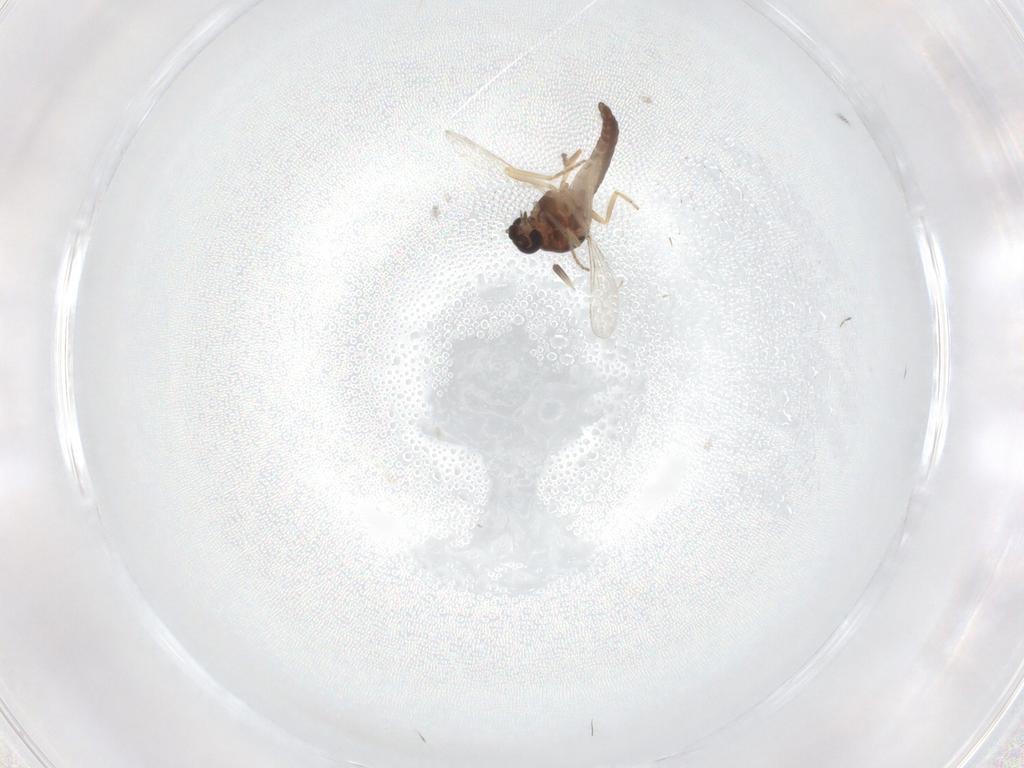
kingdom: Animalia
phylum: Arthropoda
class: Insecta
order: Diptera
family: Ceratopogonidae
